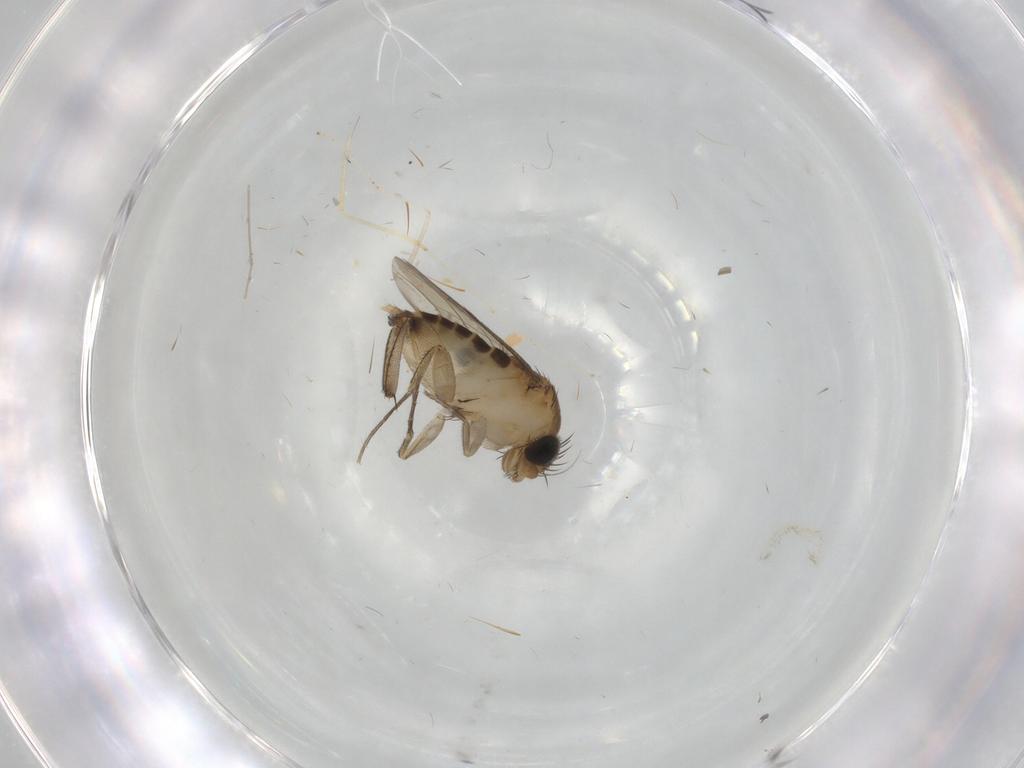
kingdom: Animalia
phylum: Arthropoda
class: Insecta
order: Diptera
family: Phoridae
